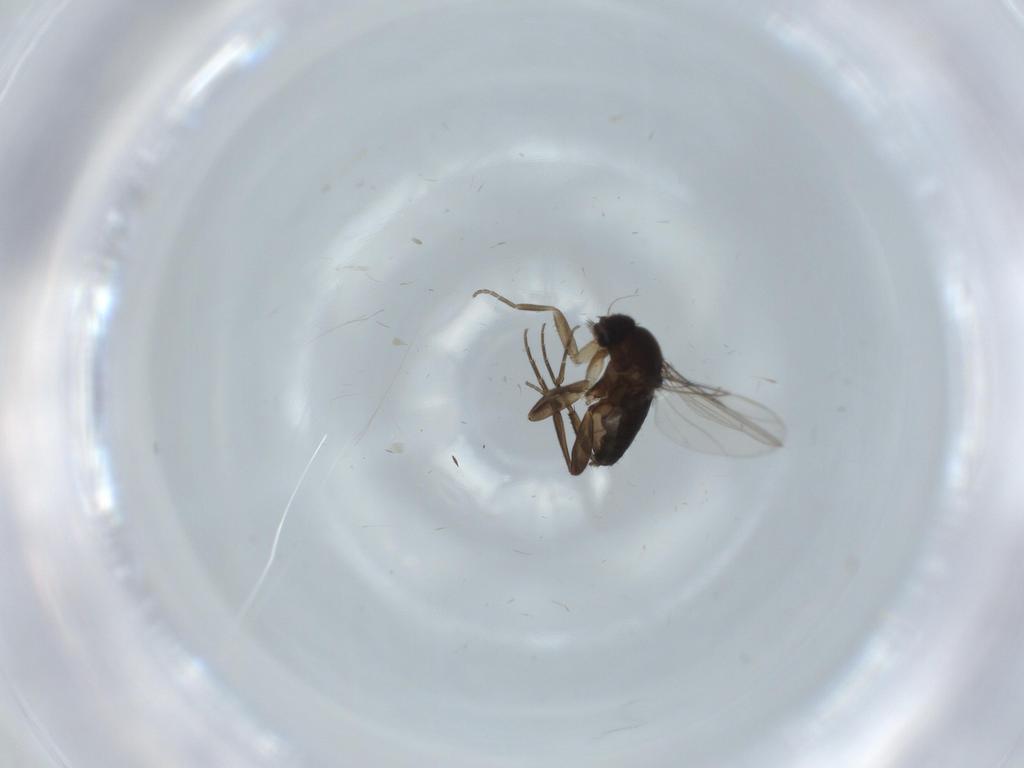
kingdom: Animalia
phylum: Arthropoda
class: Insecta
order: Diptera
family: Phoridae
